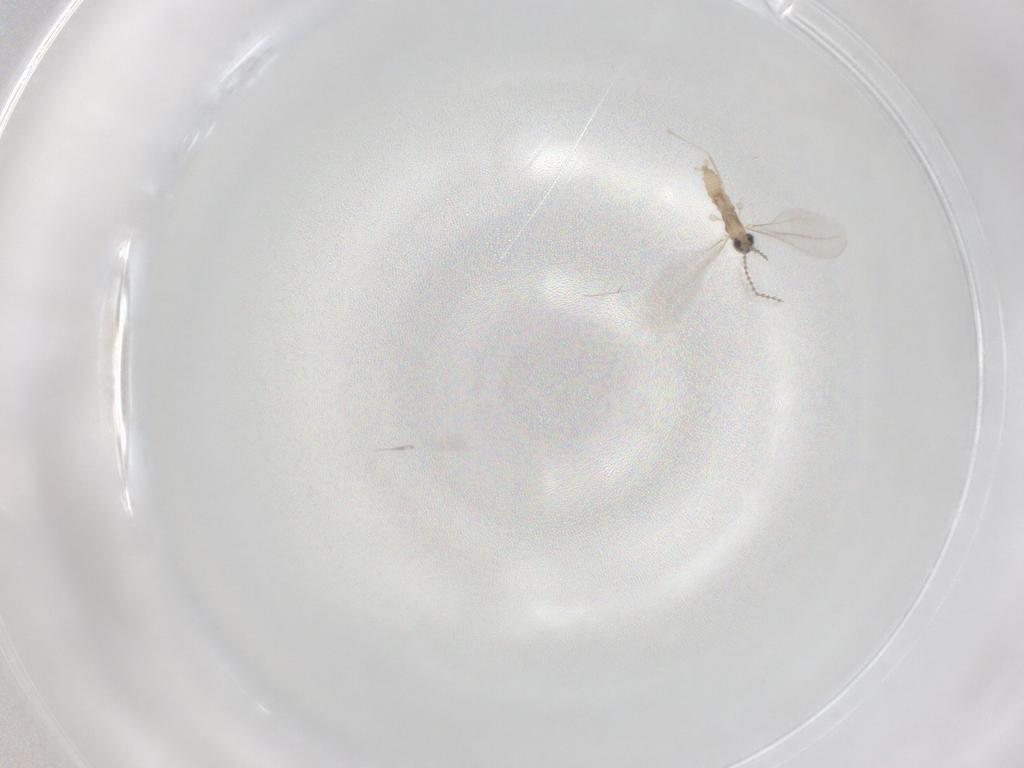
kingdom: Animalia
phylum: Arthropoda
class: Insecta
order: Diptera
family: Cecidomyiidae
